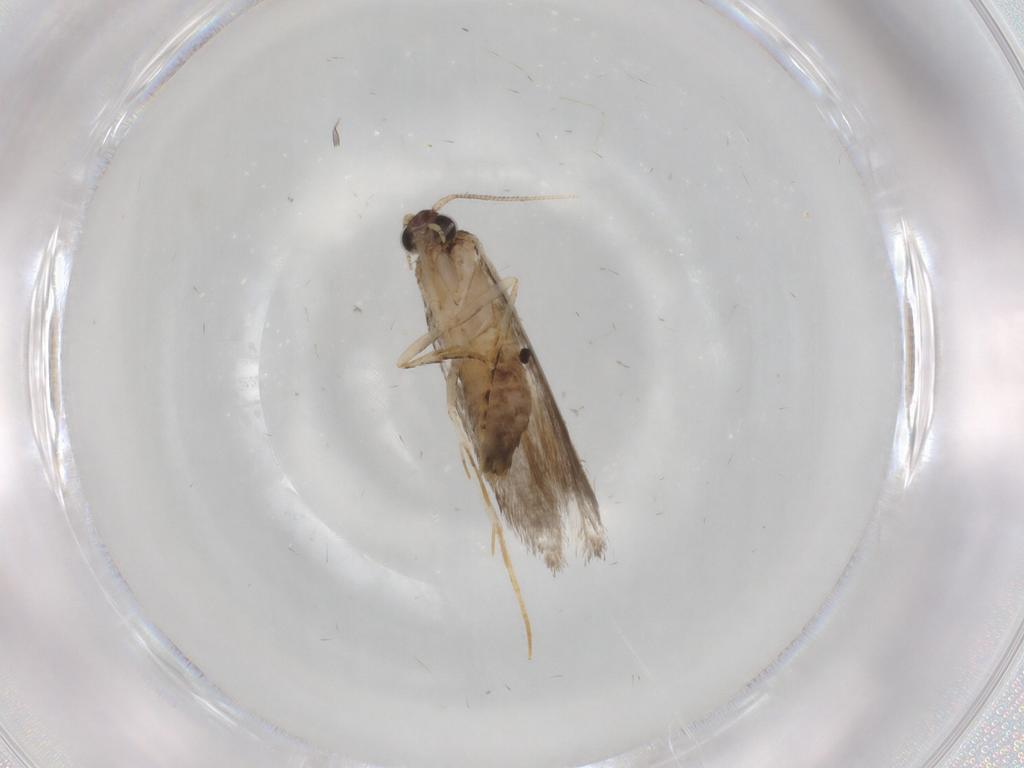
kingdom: Animalia
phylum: Arthropoda
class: Insecta
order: Lepidoptera
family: Tineidae
